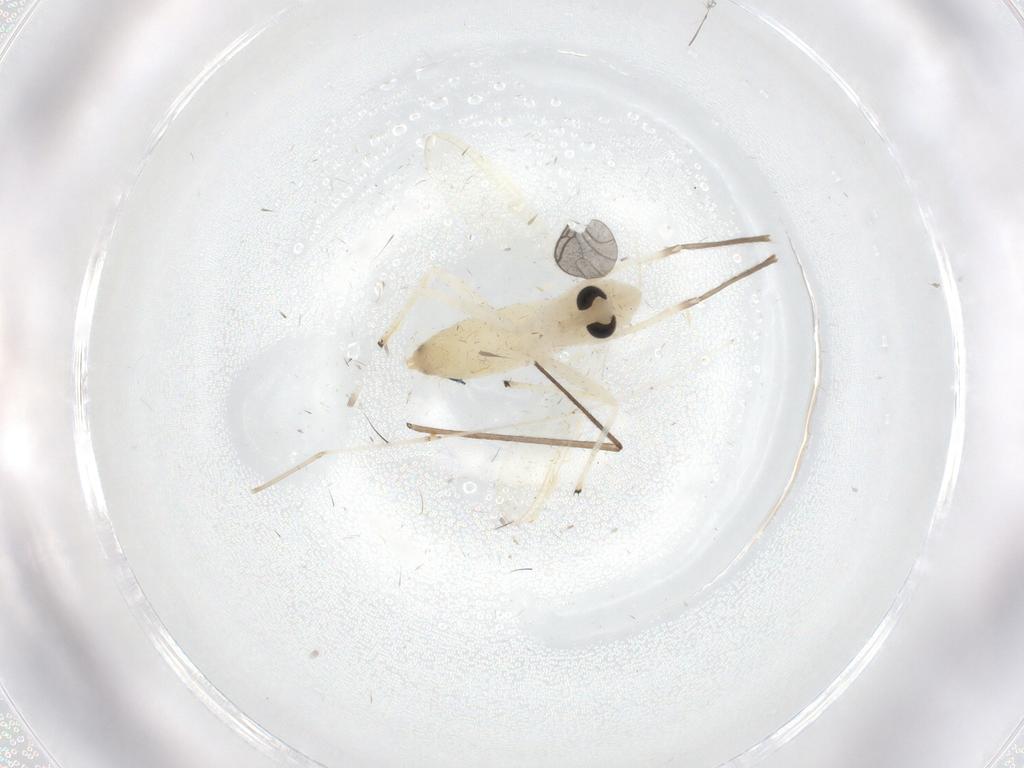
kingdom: Animalia
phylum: Arthropoda
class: Insecta
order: Diptera
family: Chironomidae
